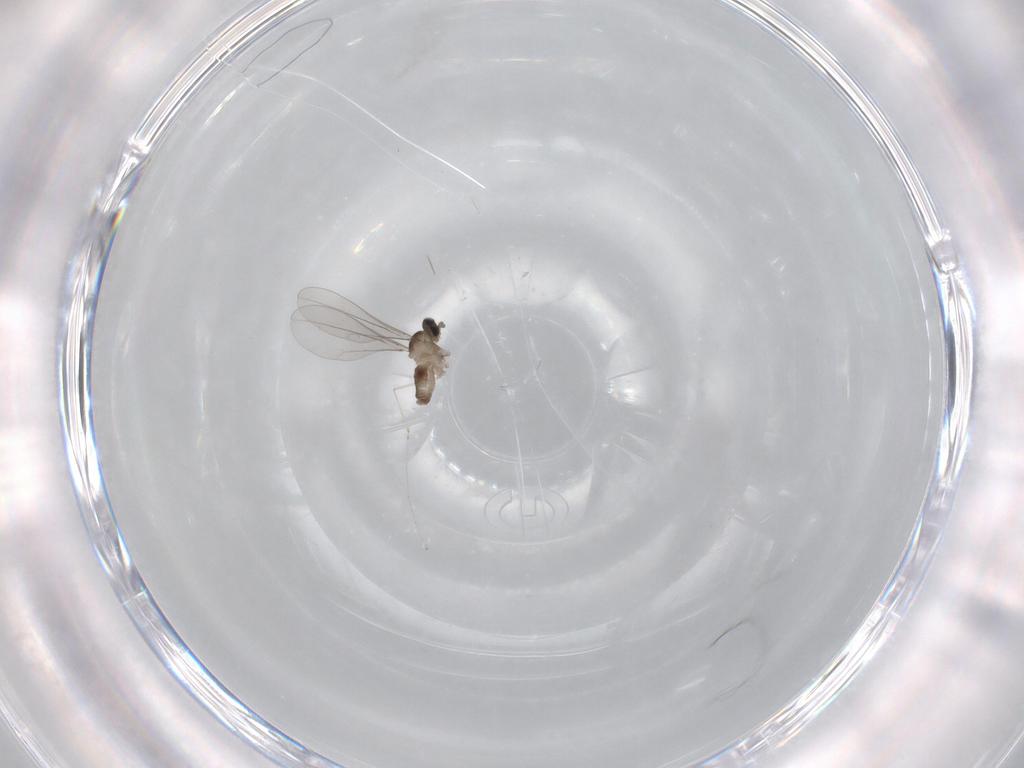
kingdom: Animalia
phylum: Arthropoda
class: Insecta
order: Diptera
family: Cecidomyiidae
